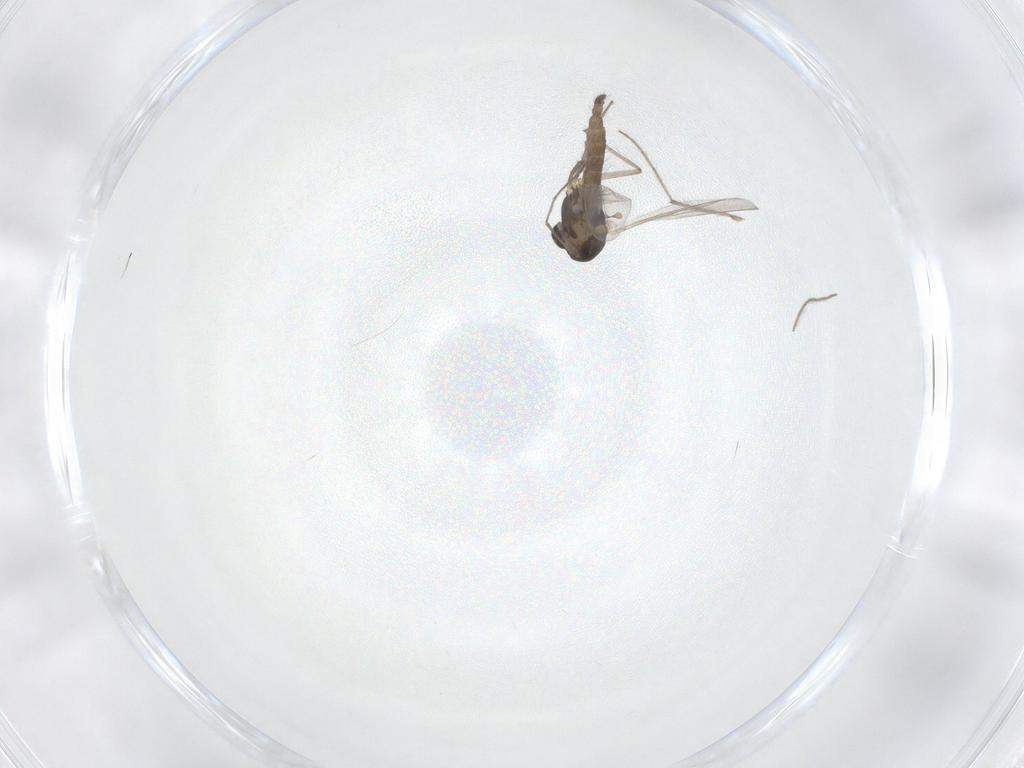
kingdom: Animalia
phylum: Arthropoda
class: Insecta
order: Diptera
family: Chironomidae
